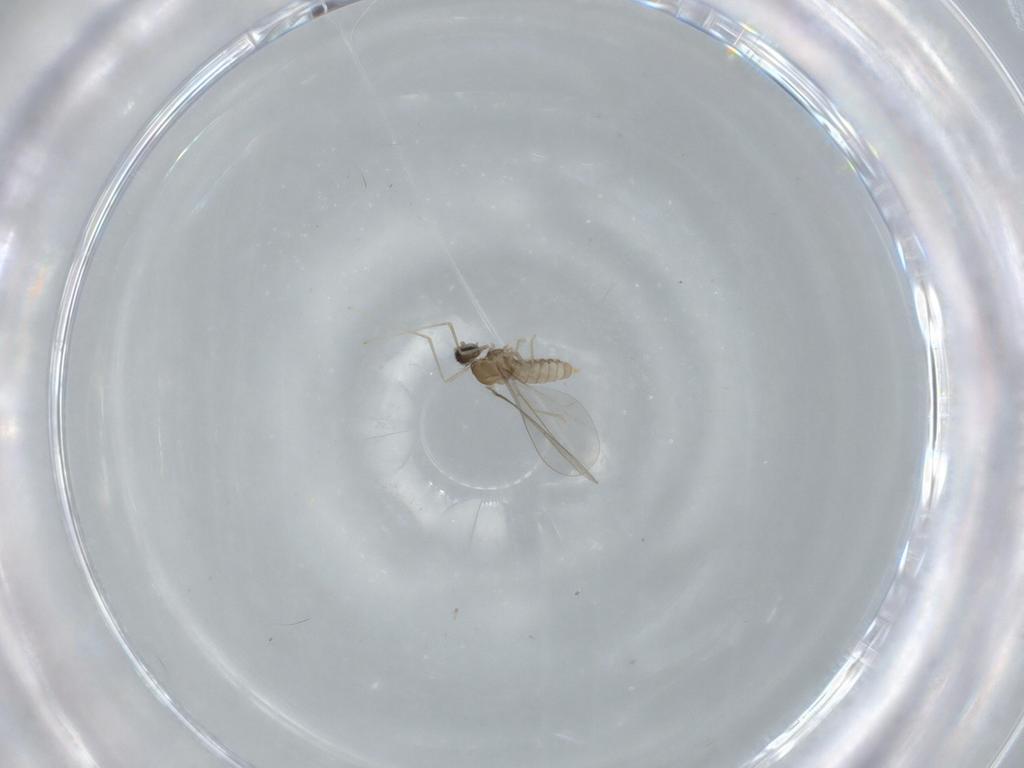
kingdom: Animalia
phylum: Arthropoda
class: Insecta
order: Diptera
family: Cecidomyiidae
